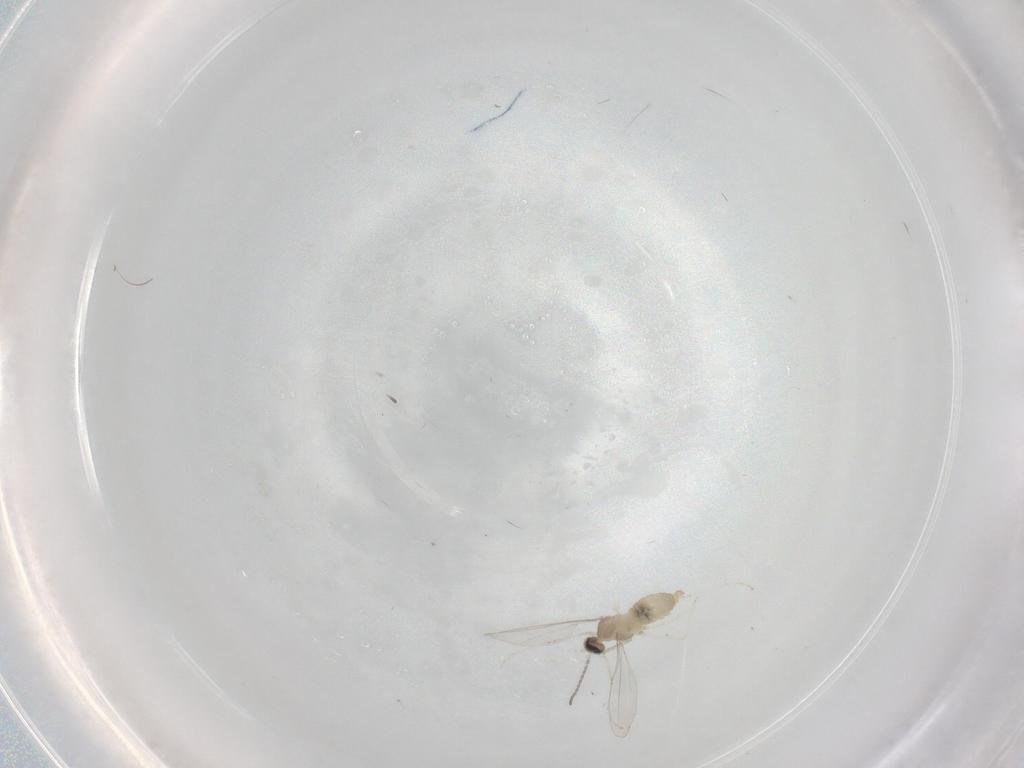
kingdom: Animalia
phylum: Arthropoda
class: Insecta
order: Diptera
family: Cecidomyiidae
